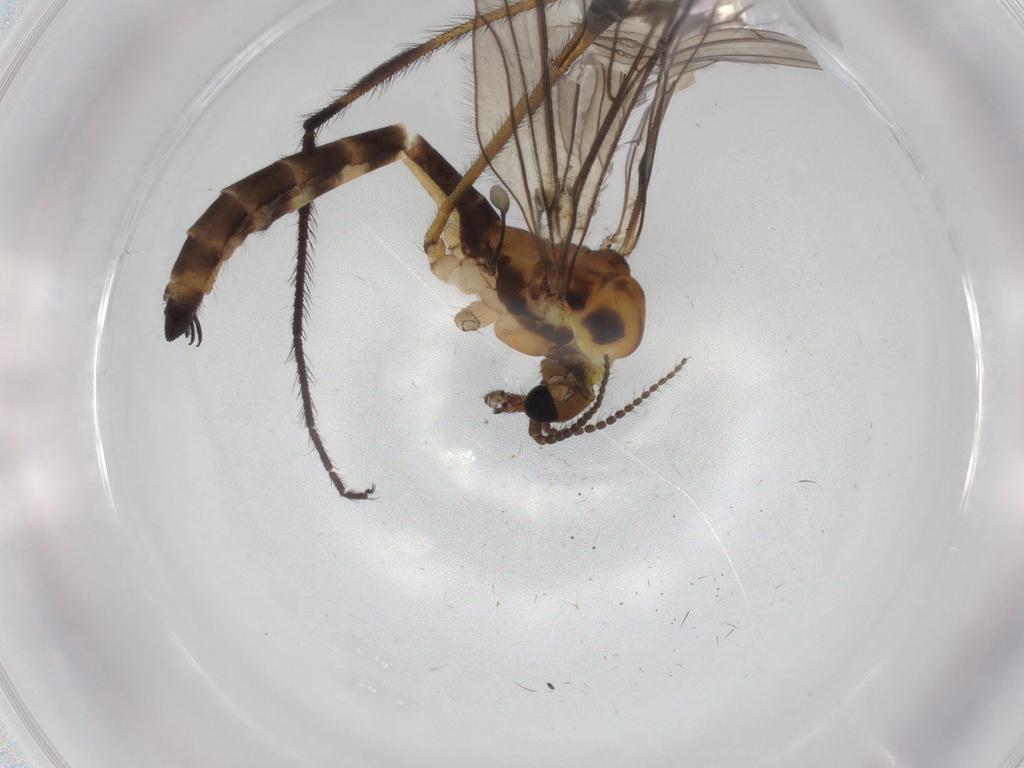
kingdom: Animalia
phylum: Arthropoda
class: Insecta
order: Diptera
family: Limoniidae
